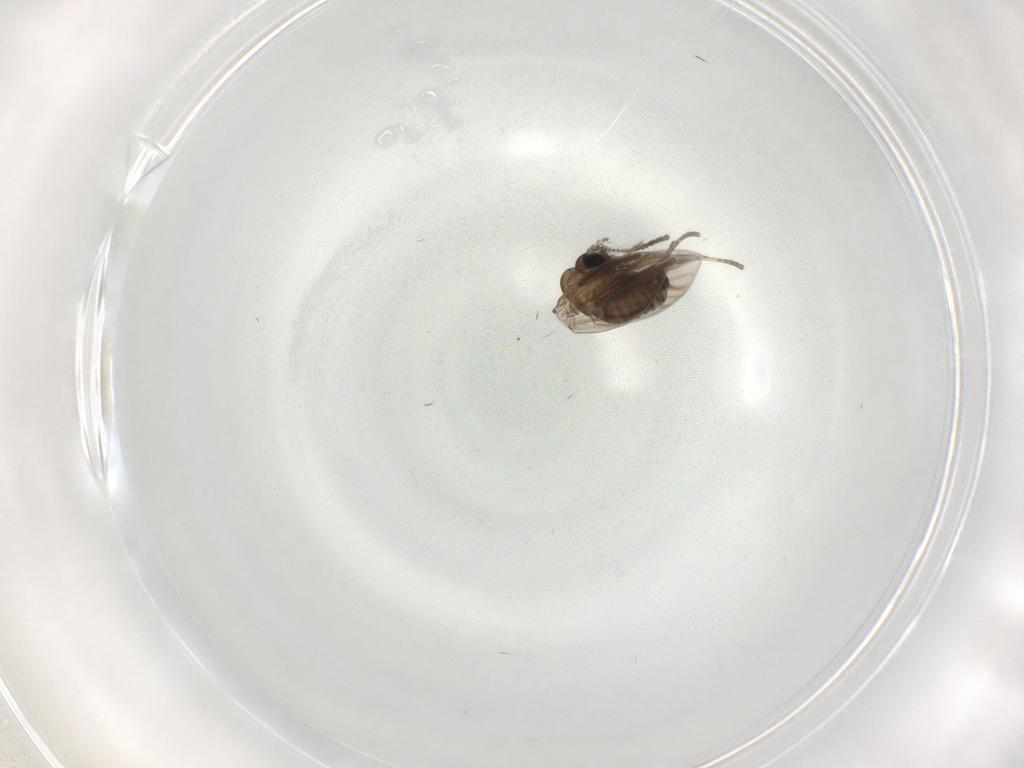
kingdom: Animalia
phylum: Arthropoda
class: Insecta
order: Diptera
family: Psychodidae
